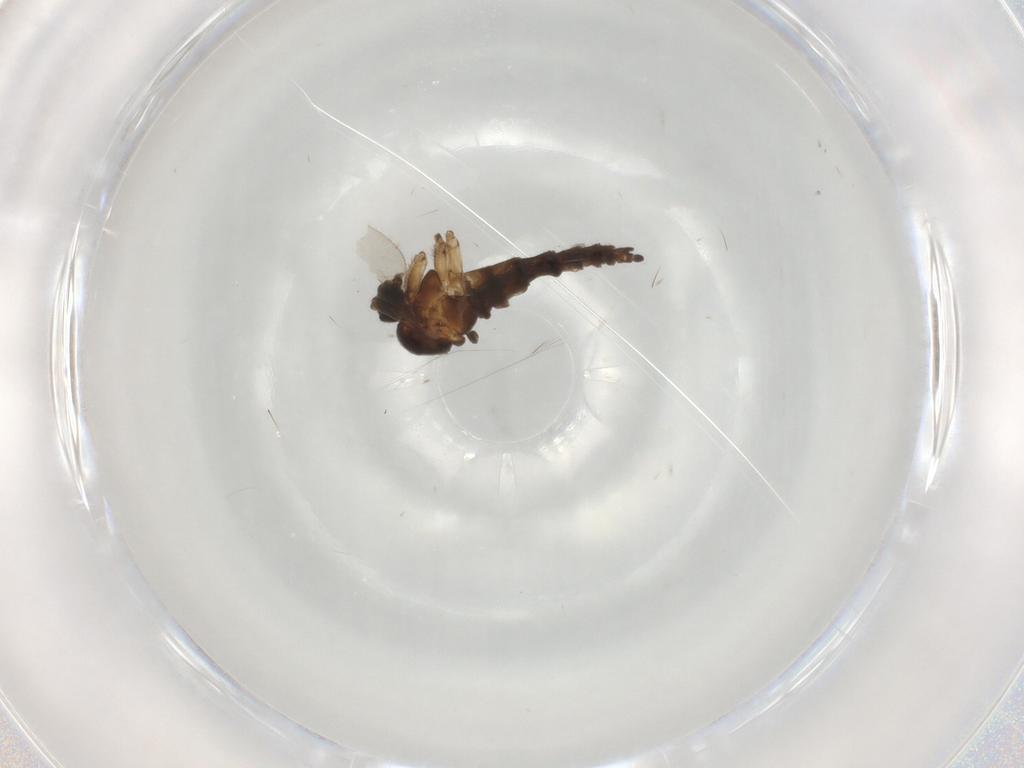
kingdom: Animalia
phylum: Arthropoda
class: Insecta
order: Diptera
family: Sciaridae
